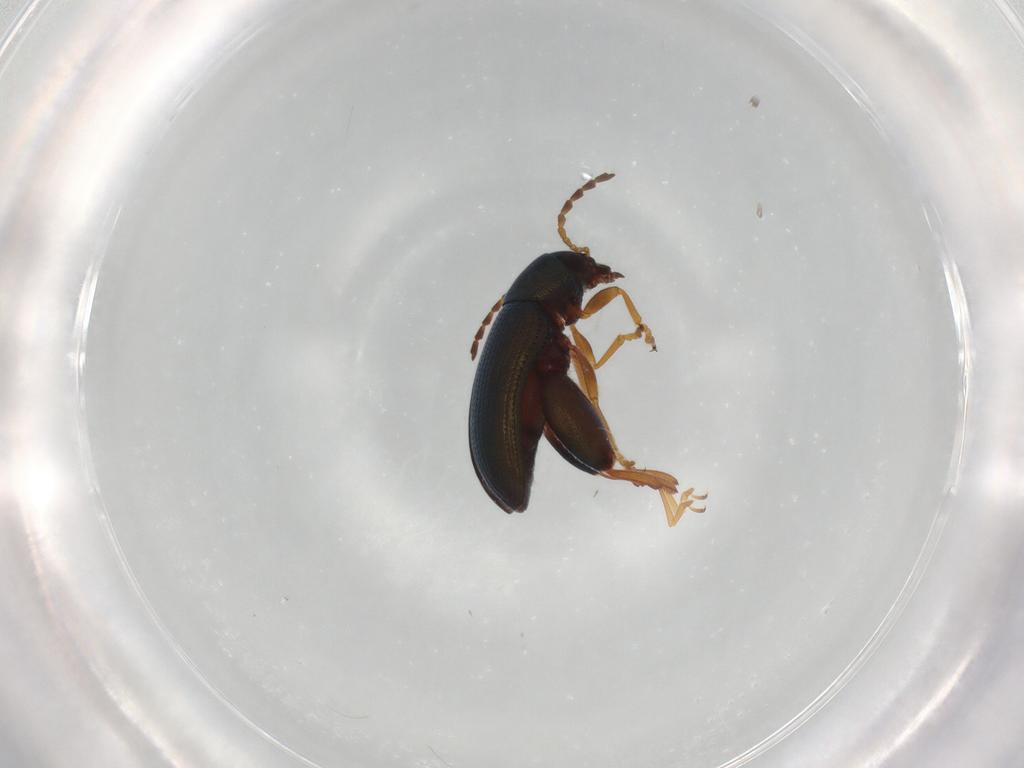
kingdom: Animalia
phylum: Arthropoda
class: Insecta
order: Coleoptera
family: Chrysomelidae
